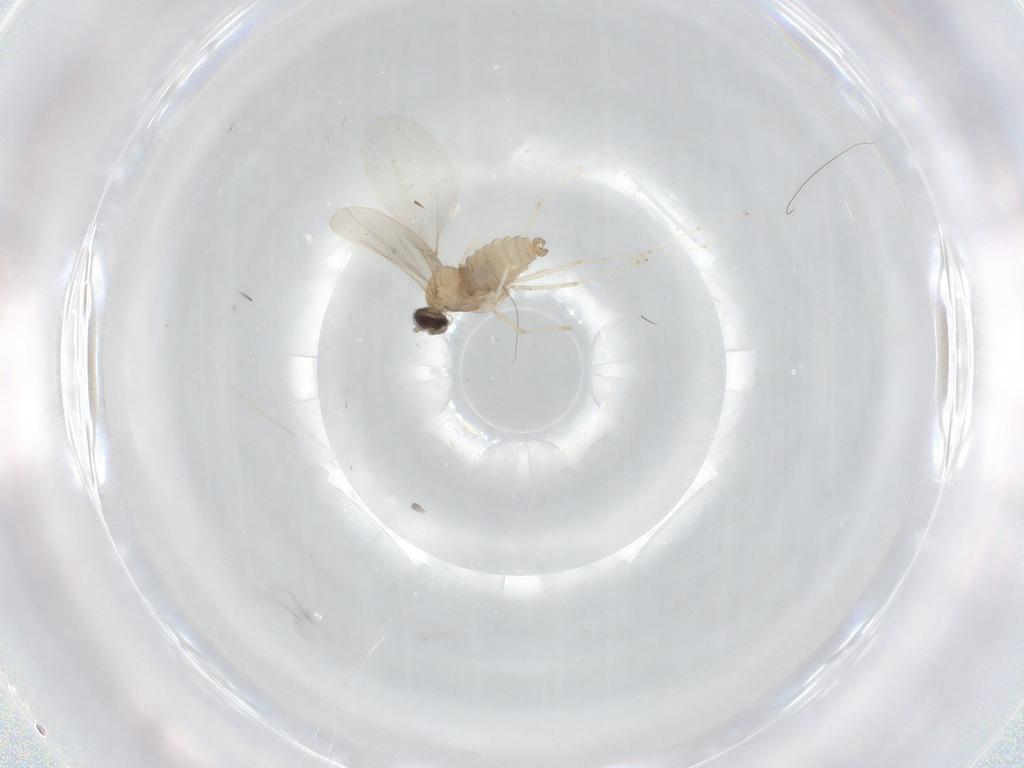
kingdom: Animalia
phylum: Arthropoda
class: Insecta
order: Diptera
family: Cecidomyiidae
